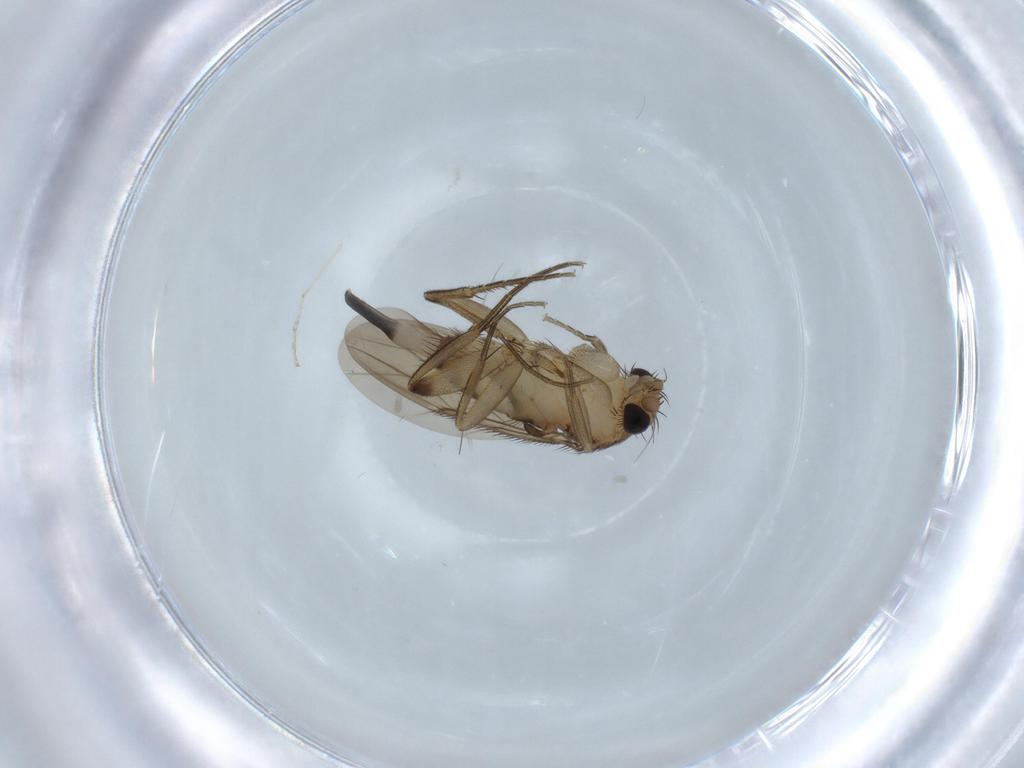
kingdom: Animalia
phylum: Arthropoda
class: Insecta
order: Diptera
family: Phoridae
